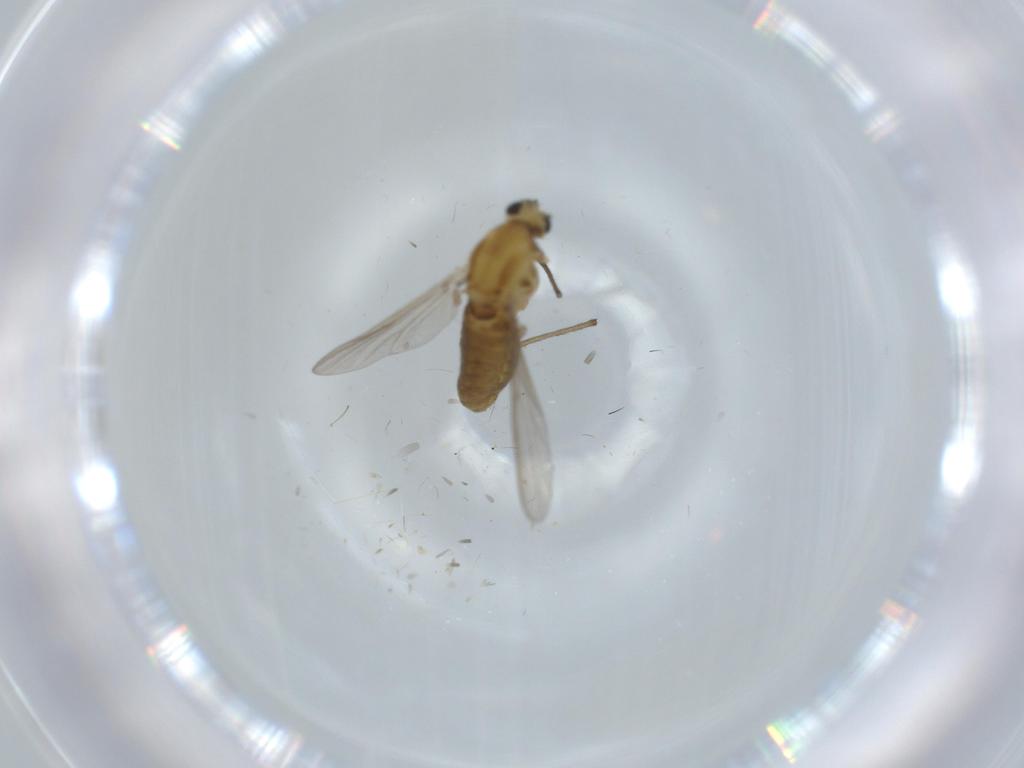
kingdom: Animalia
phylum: Arthropoda
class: Insecta
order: Diptera
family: Chironomidae
